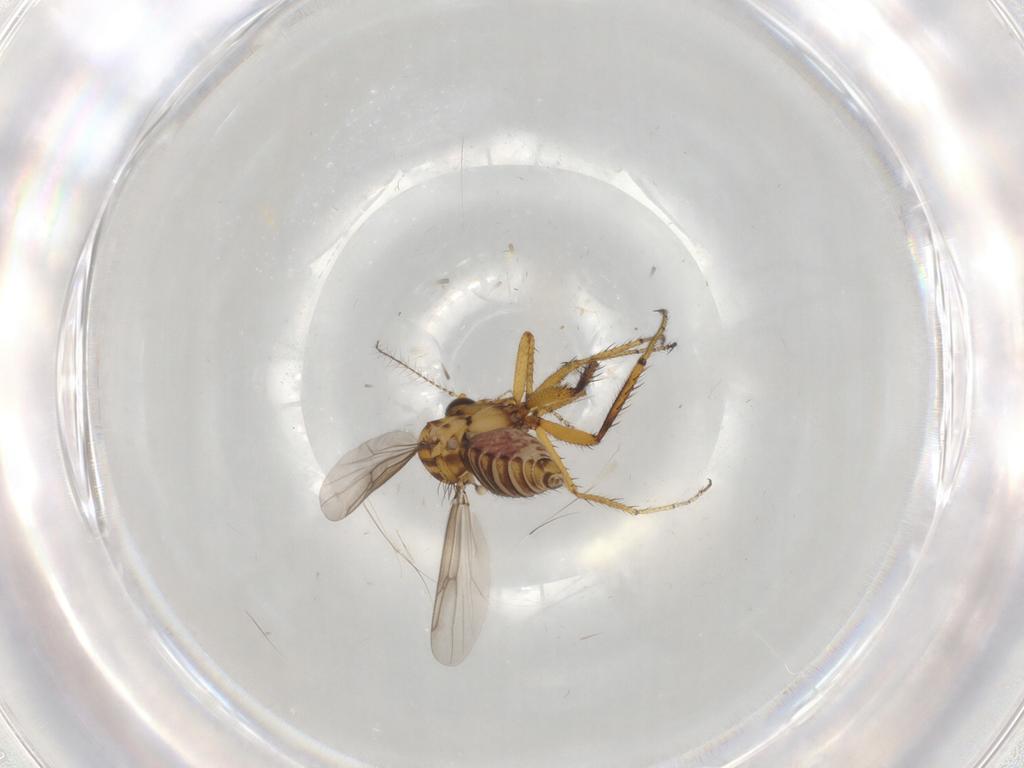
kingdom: Animalia
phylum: Arthropoda
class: Insecta
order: Diptera
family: Ceratopogonidae
